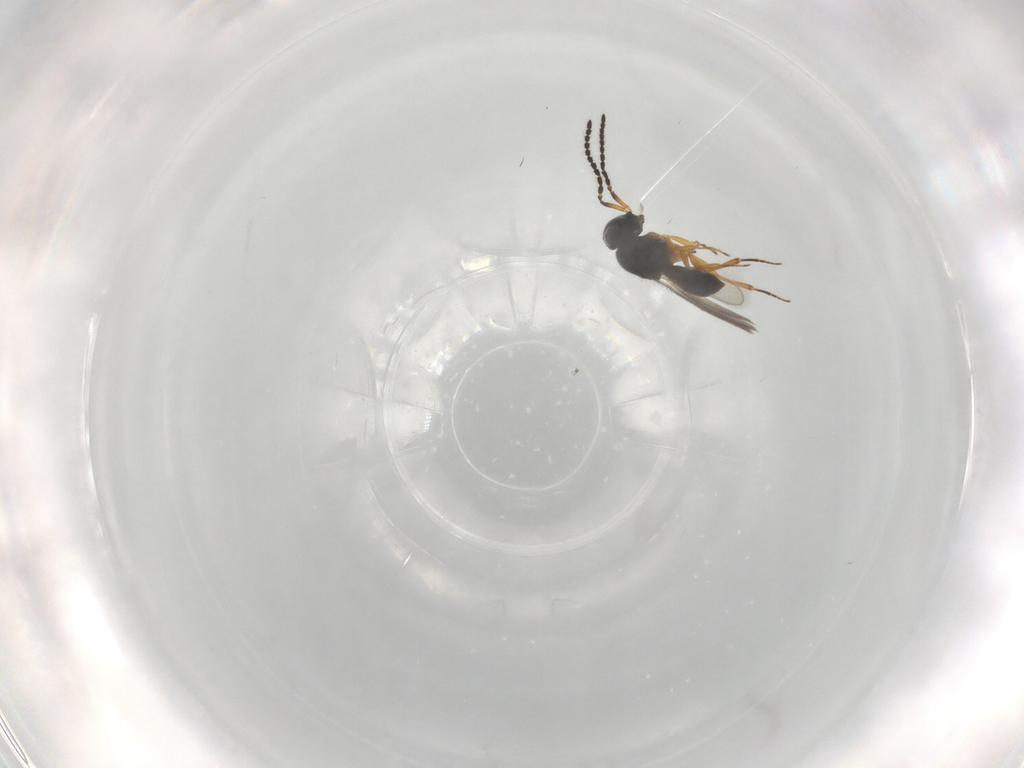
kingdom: Animalia
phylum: Arthropoda
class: Insecta
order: Hymenoptera
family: Scelionidae
